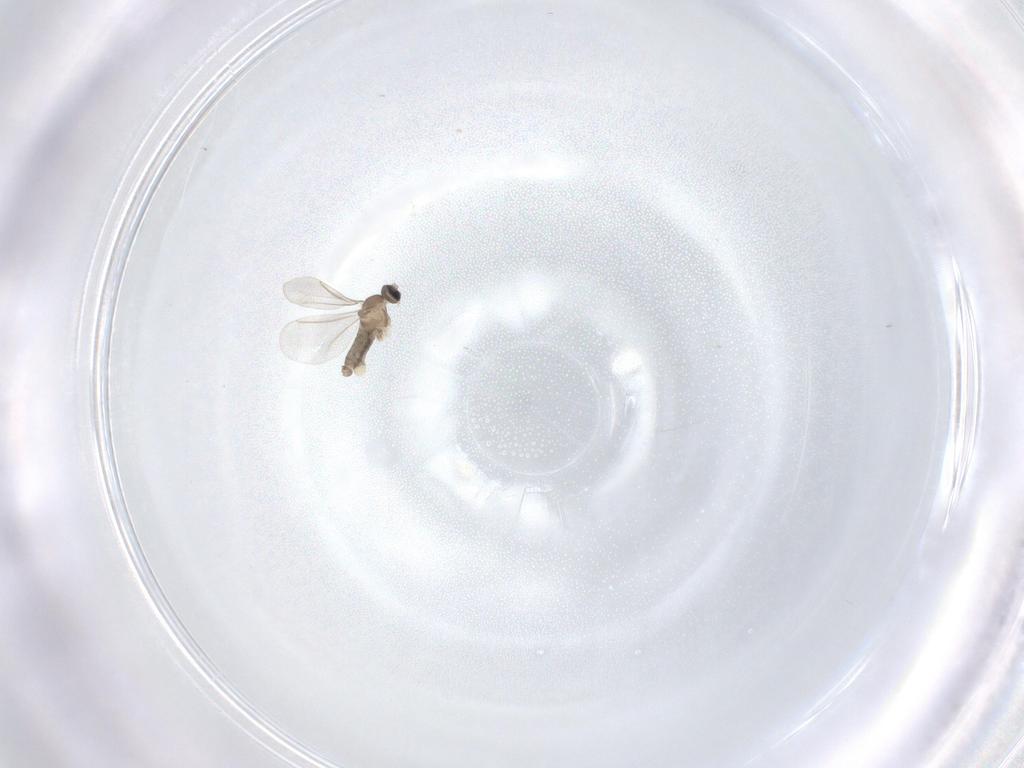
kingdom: Animalia
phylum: Arthropoda
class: Insecta
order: Diptera
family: Cecidomyiidae
